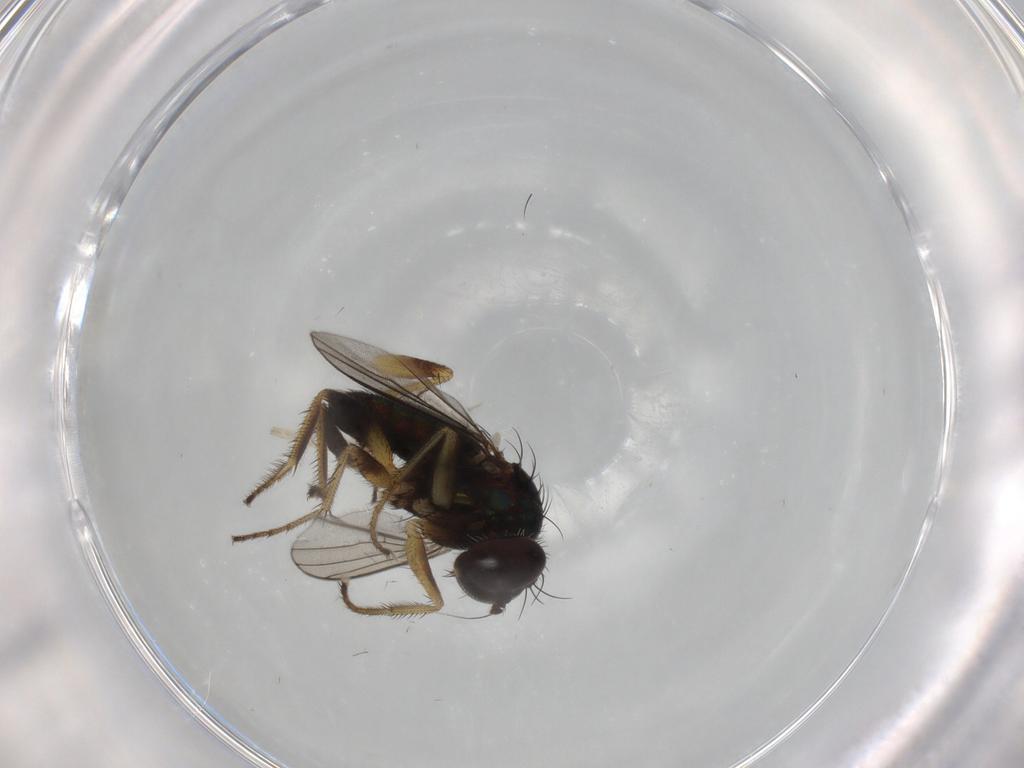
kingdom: Animalia
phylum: Arthropoda
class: Insecta
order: Diptera
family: Dolichopodidae
